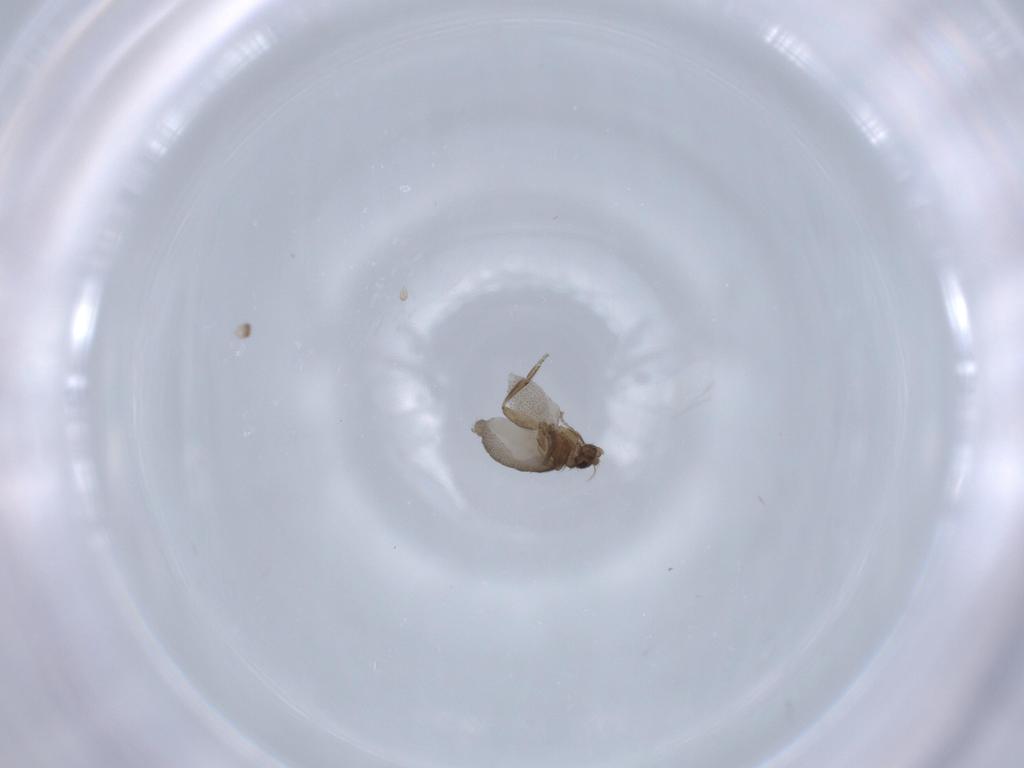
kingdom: Animalia
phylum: Arthropoda
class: Insecta
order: Diptera
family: Phoridae
